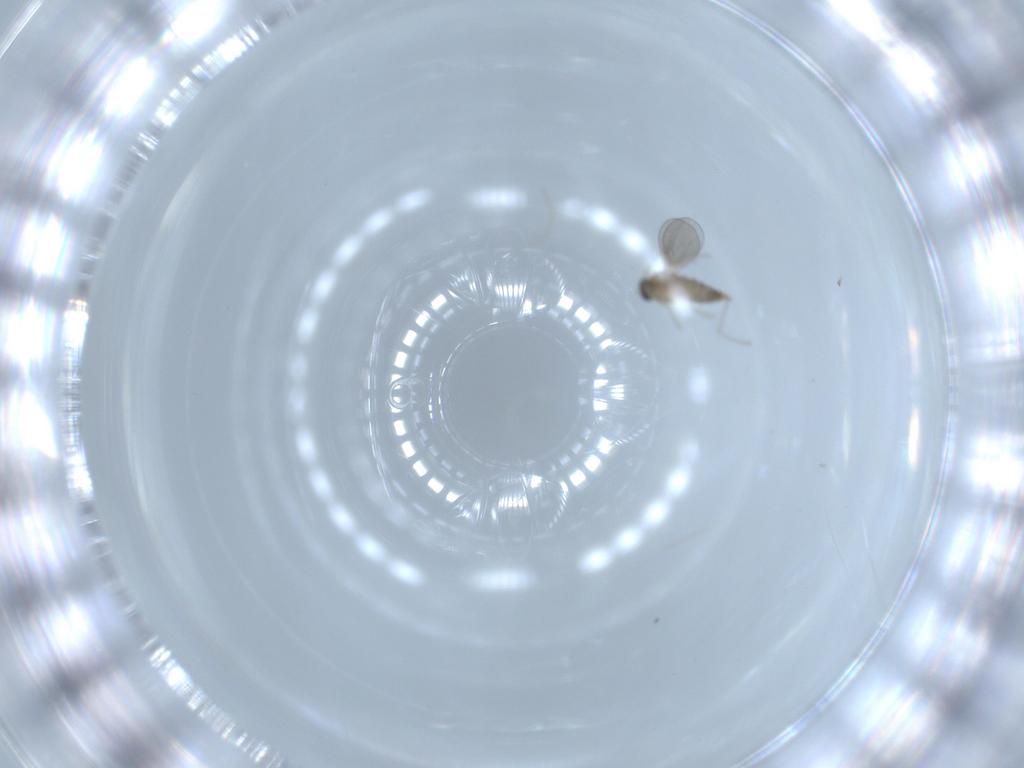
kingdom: Animalia
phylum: Arthropoda
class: Insecta
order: Diptera
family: Cecidomyiidae
